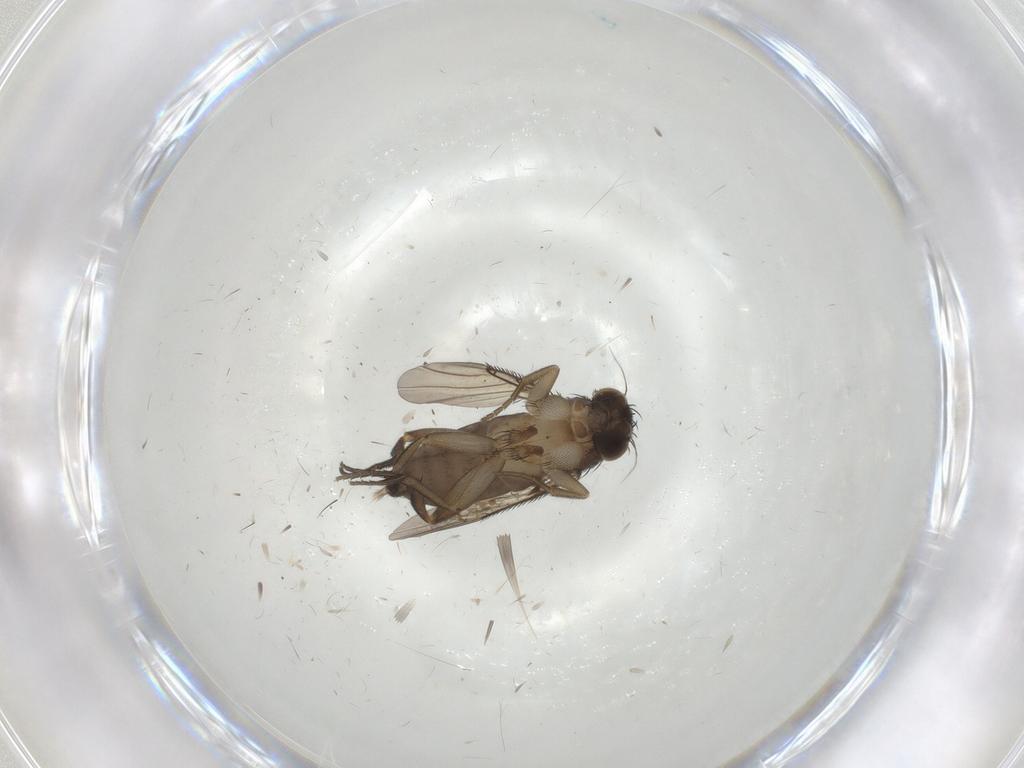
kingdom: Animalia
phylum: Arthropoda
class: Insecta
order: Diptera
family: Phoridae
